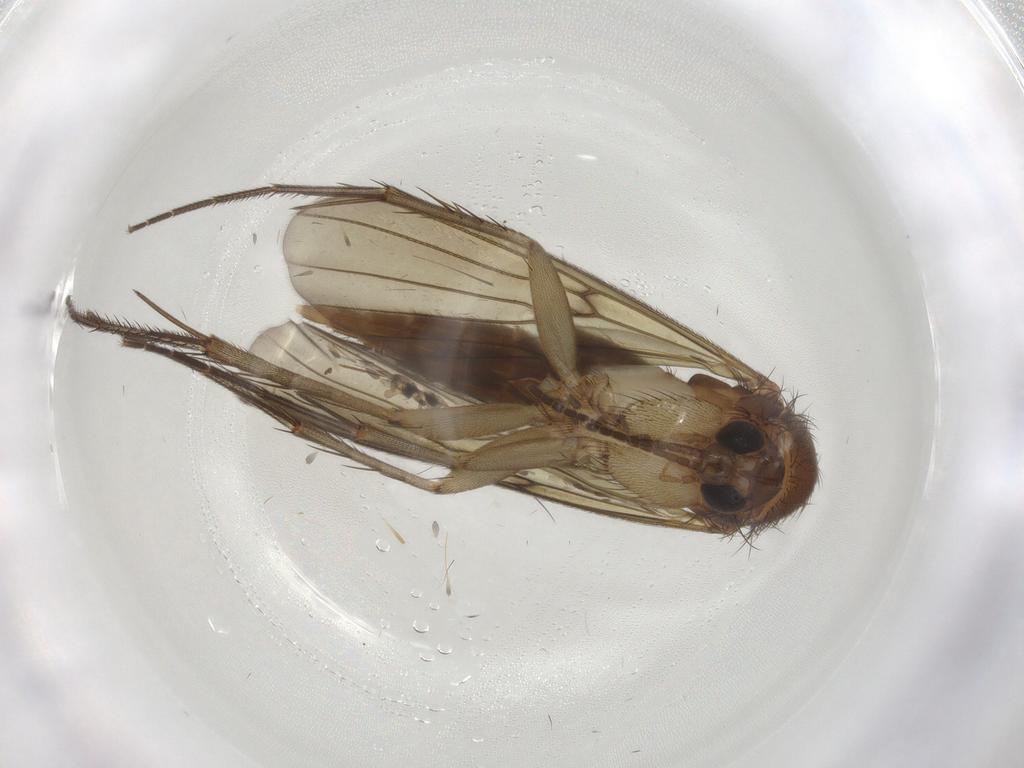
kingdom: Animalia
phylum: Arthropoda
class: Insecta
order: Diptera
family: Mycetophilidae
